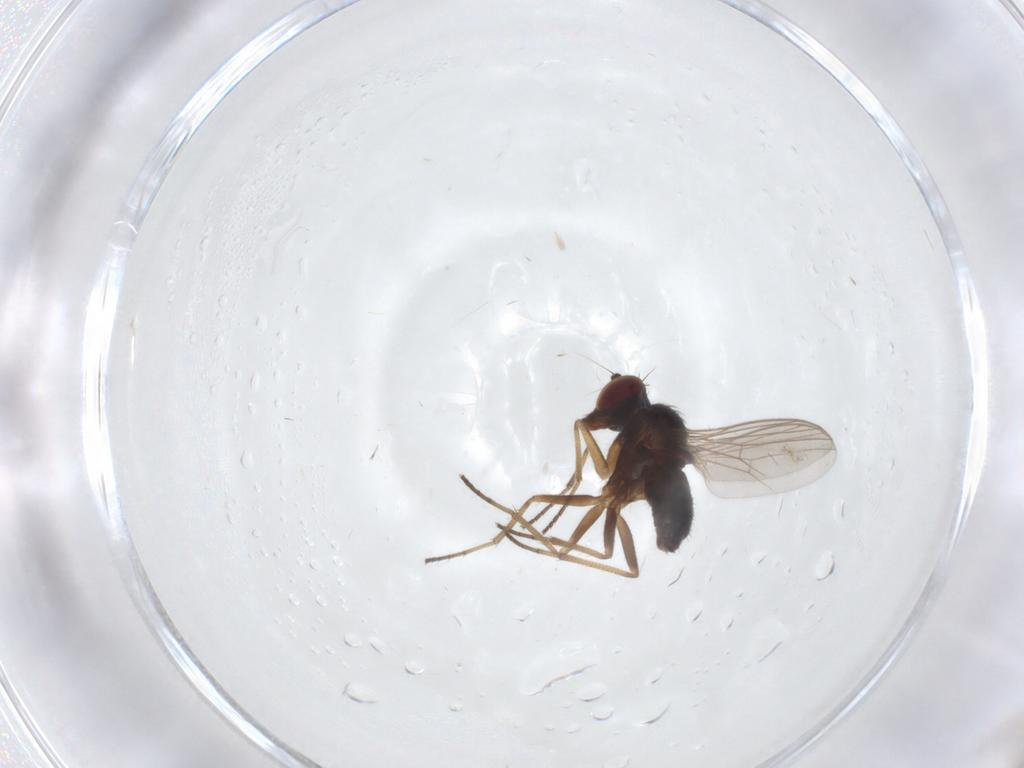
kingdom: Animalia
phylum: Arthropoda
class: Insecta
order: Diptera
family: Dolichopodidae
